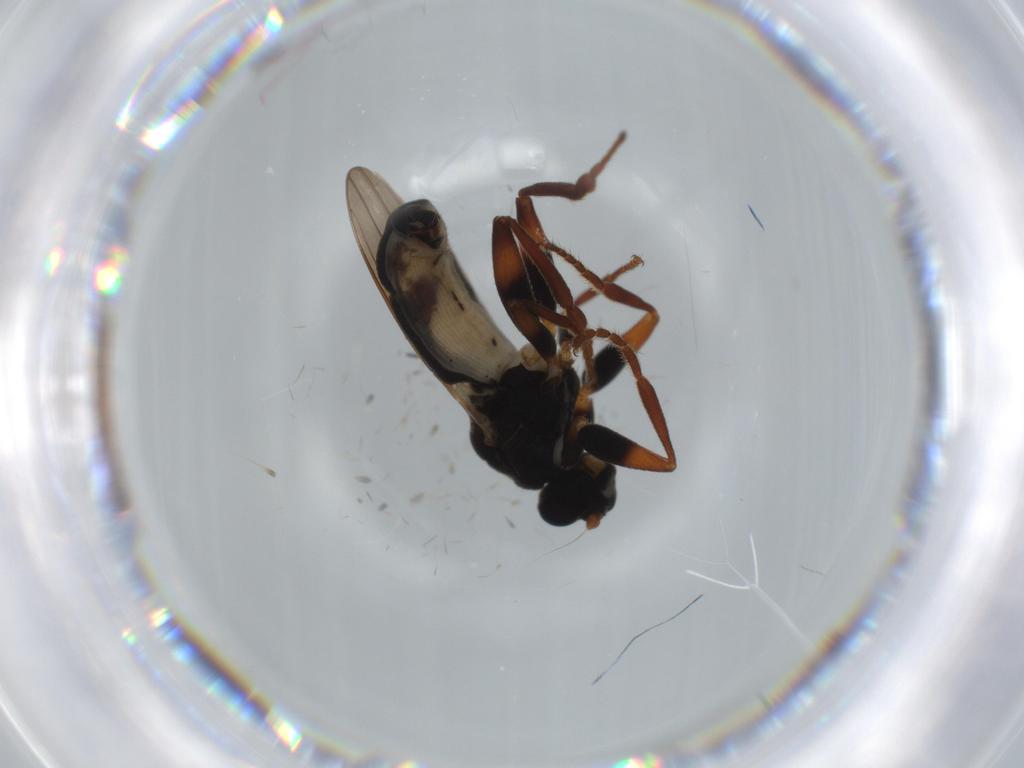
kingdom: Animalia
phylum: Arthropoda
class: Insecta
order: Diptera
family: Sphaeroceridae
